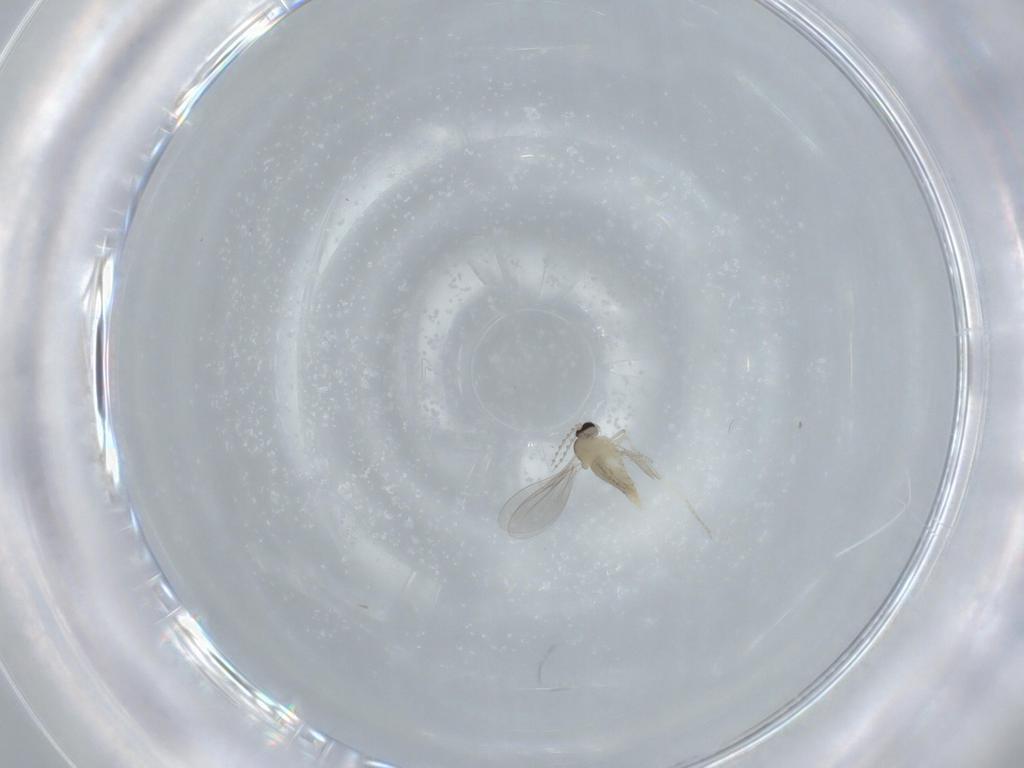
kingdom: Animalia
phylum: Arthropoda
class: Insecta
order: Diptera
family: Cecidomyiidae
